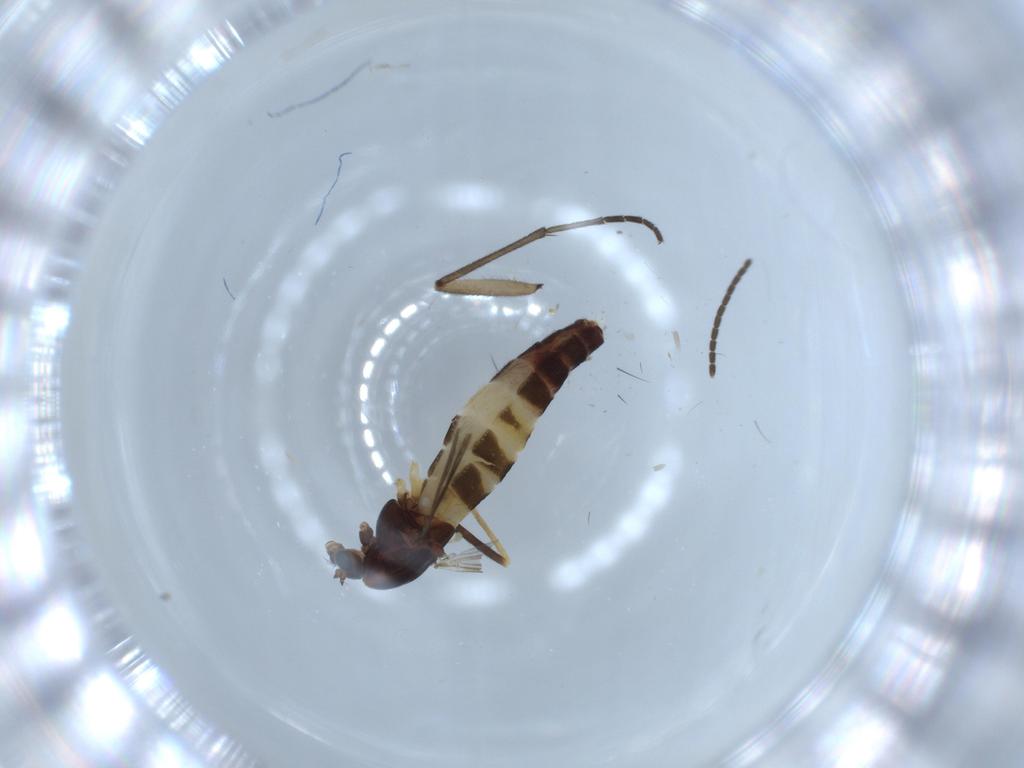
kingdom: Animalia
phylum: Arthropoda
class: Insecta
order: Diptera
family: Sciaridae
